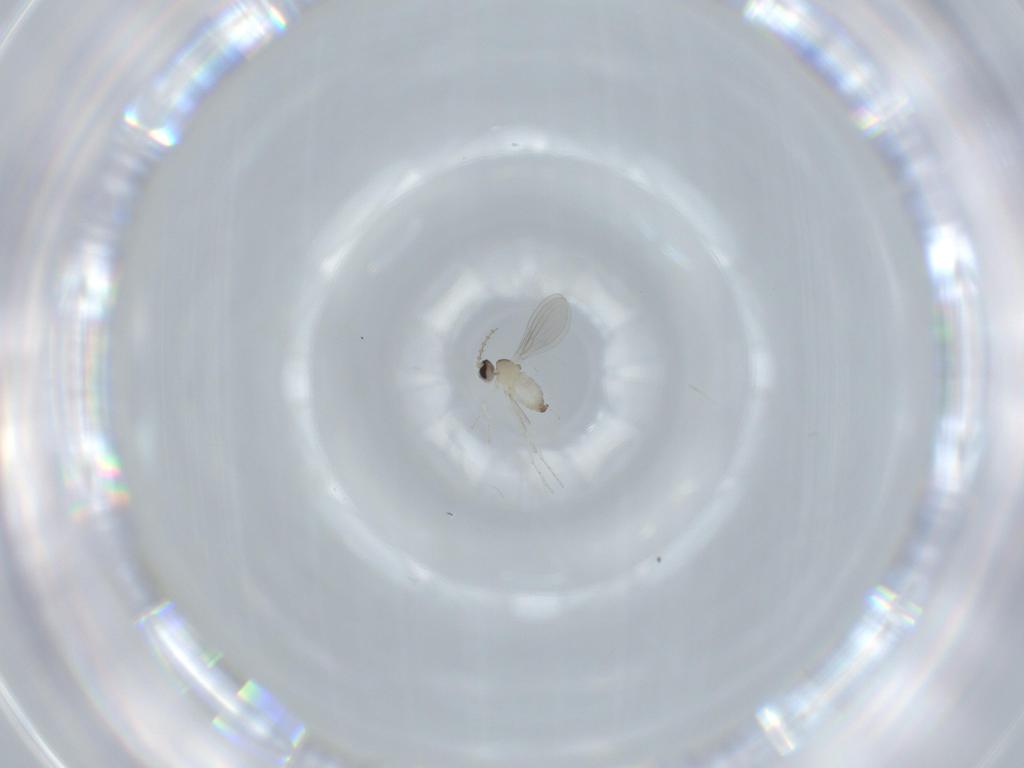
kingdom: Animalia
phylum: Arthropoda
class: Insecta
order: Diptera
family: Cecidomyiidae
